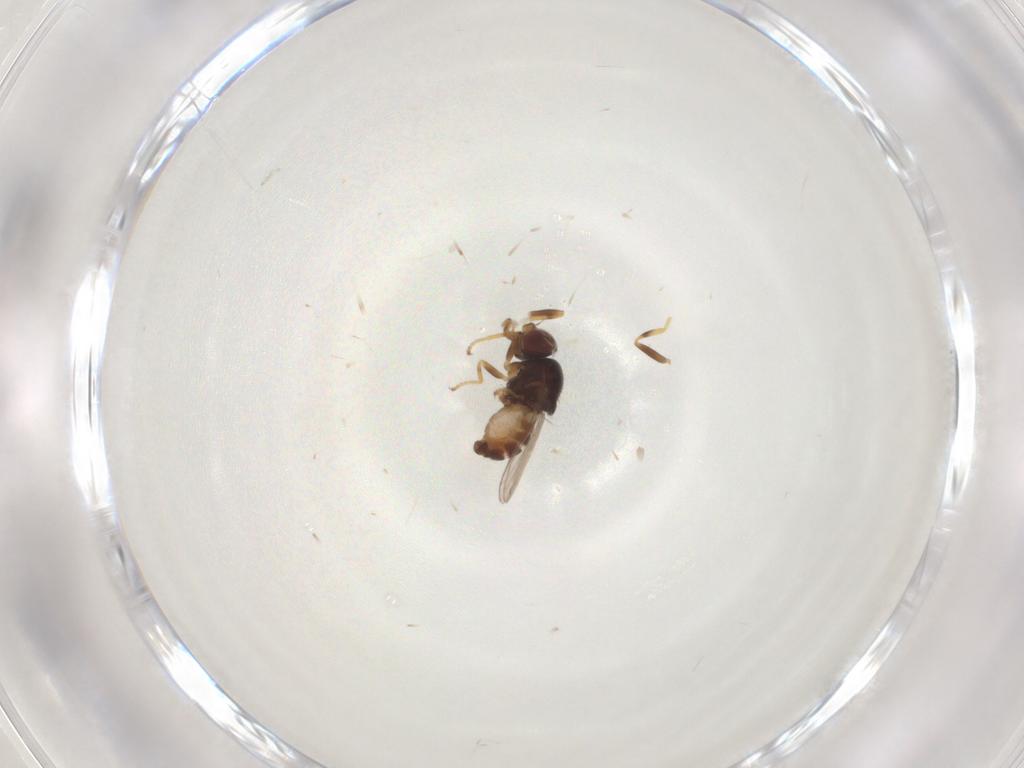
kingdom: Animalia
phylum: Arthropoda
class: Insecta
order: Diptera
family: Chloropidae
